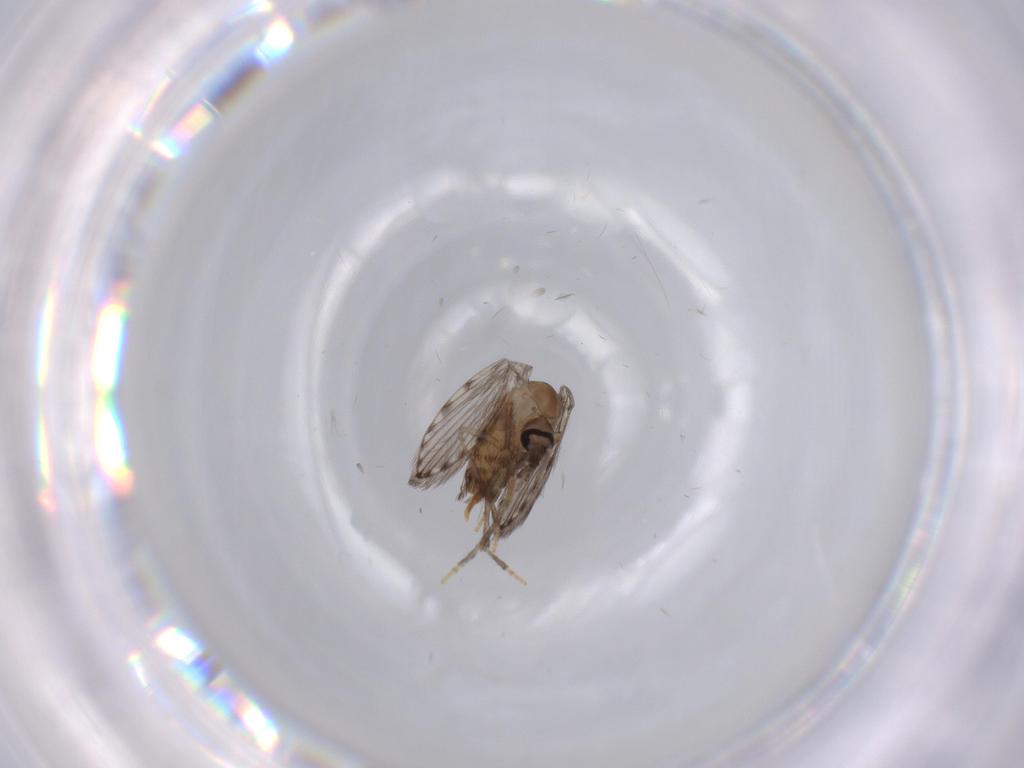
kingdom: Animalia
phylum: Arthropoda
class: Insecta
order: Diptera
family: Psychodidae
